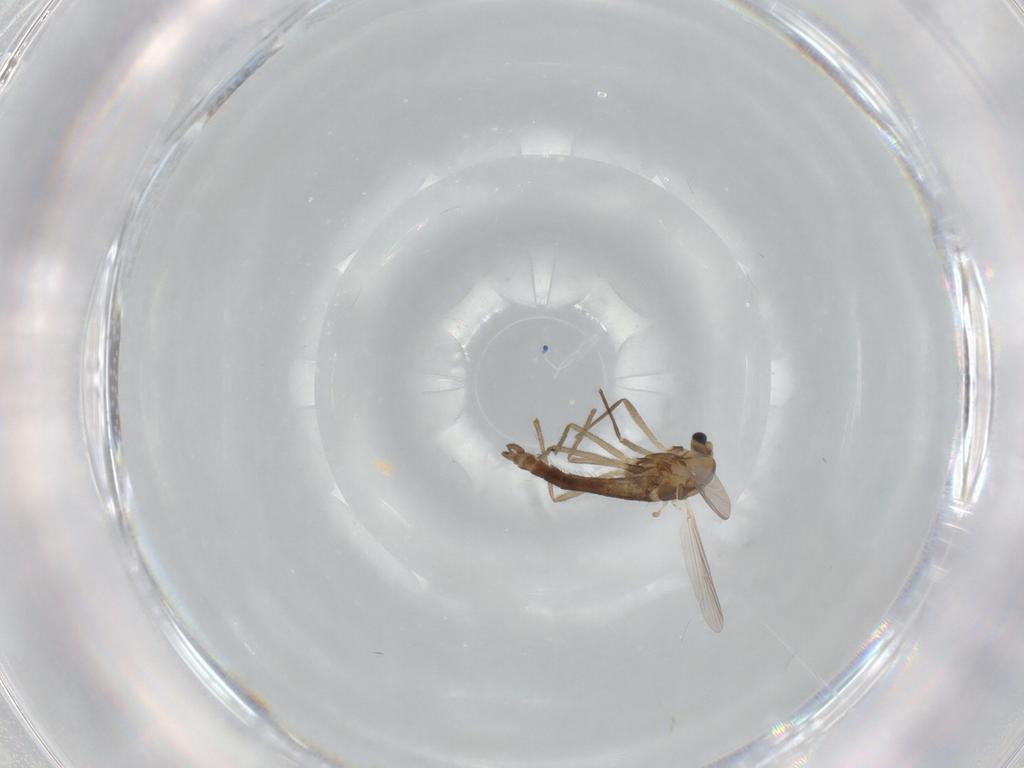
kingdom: Animalia
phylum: Arthropoda
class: Insecta
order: Diptera
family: Chironomidae
